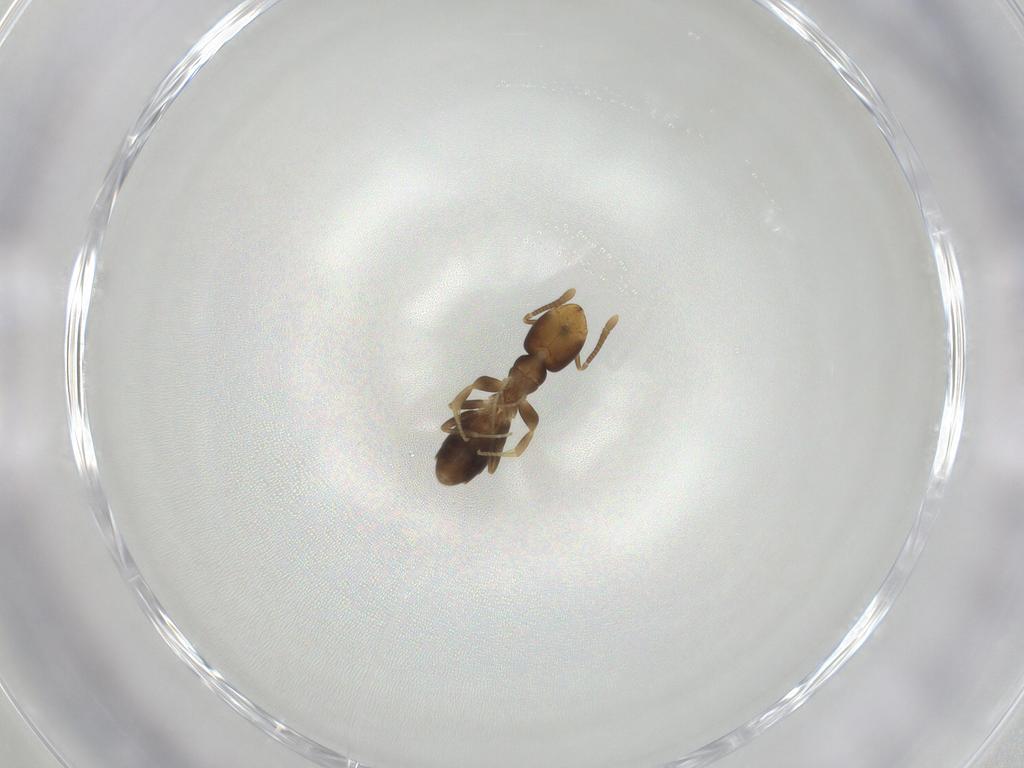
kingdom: Animalia
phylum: Arthropoda
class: Insecta
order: Hymenoptera
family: Formicidae
